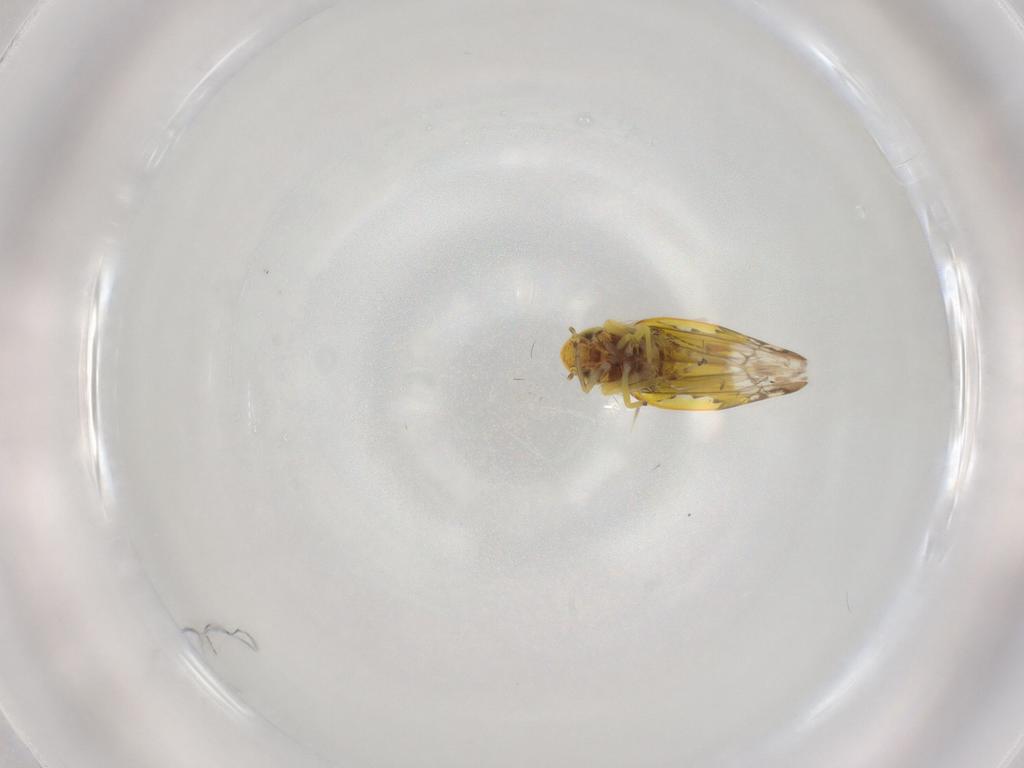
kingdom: Animalia
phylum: Arthropoda
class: Insecta
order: Hemiptera
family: Cicadellidae
